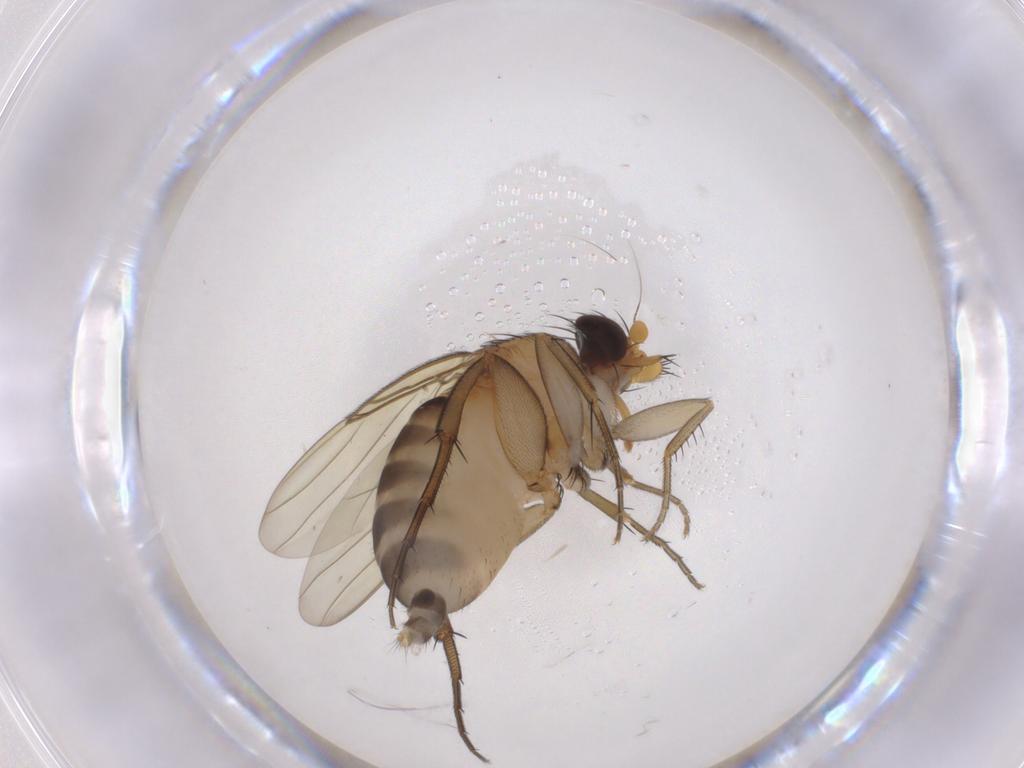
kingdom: Animalia
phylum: Arthropoda
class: Insecta
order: Diptera
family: Phoridae
